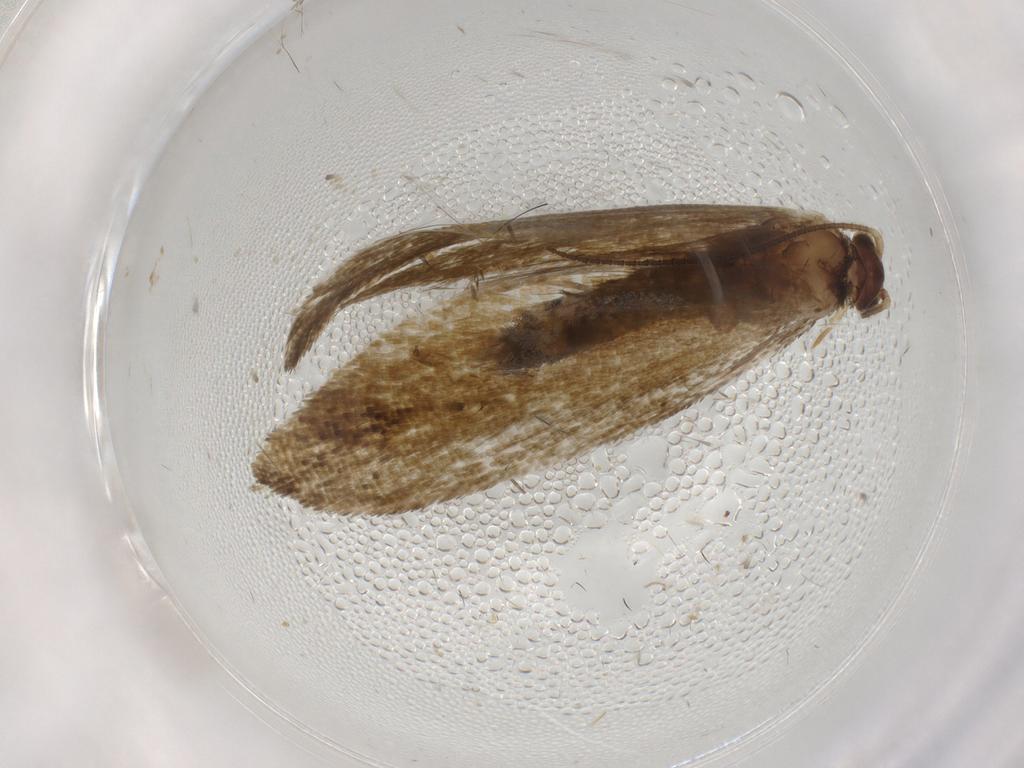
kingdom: Animalia
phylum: Arthropoda
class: Insecta
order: Lepidoptera
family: Tineidae
